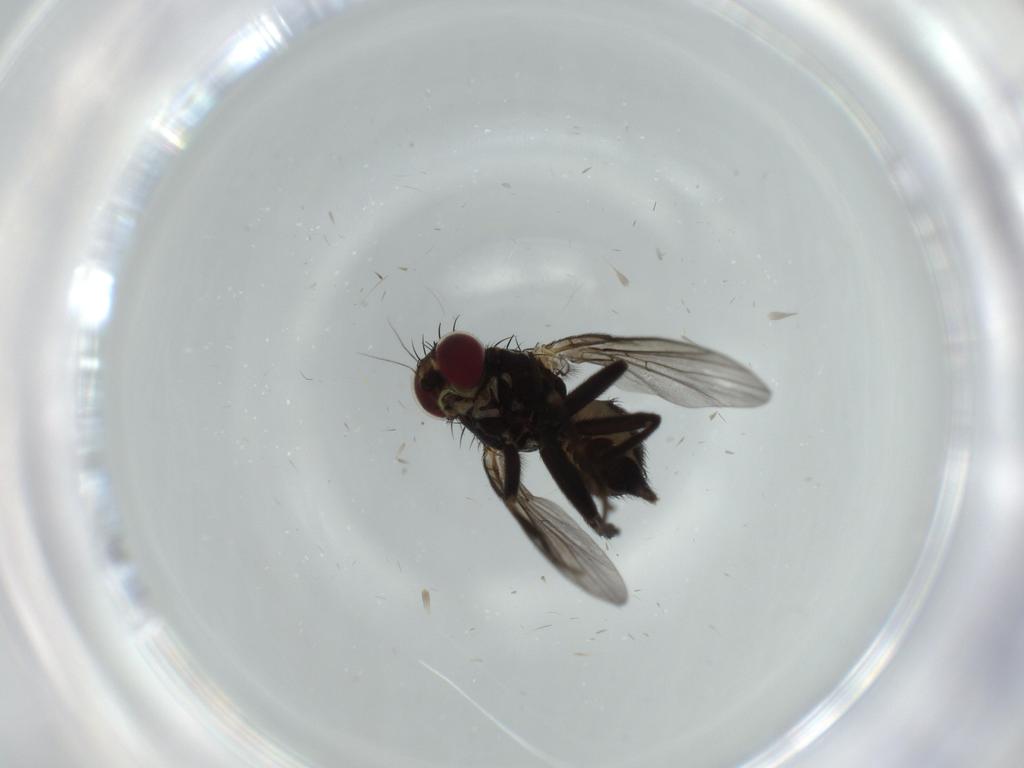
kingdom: Animalia
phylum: Arthropoda
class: Insecta
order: Diptera
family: Agromyzidae
